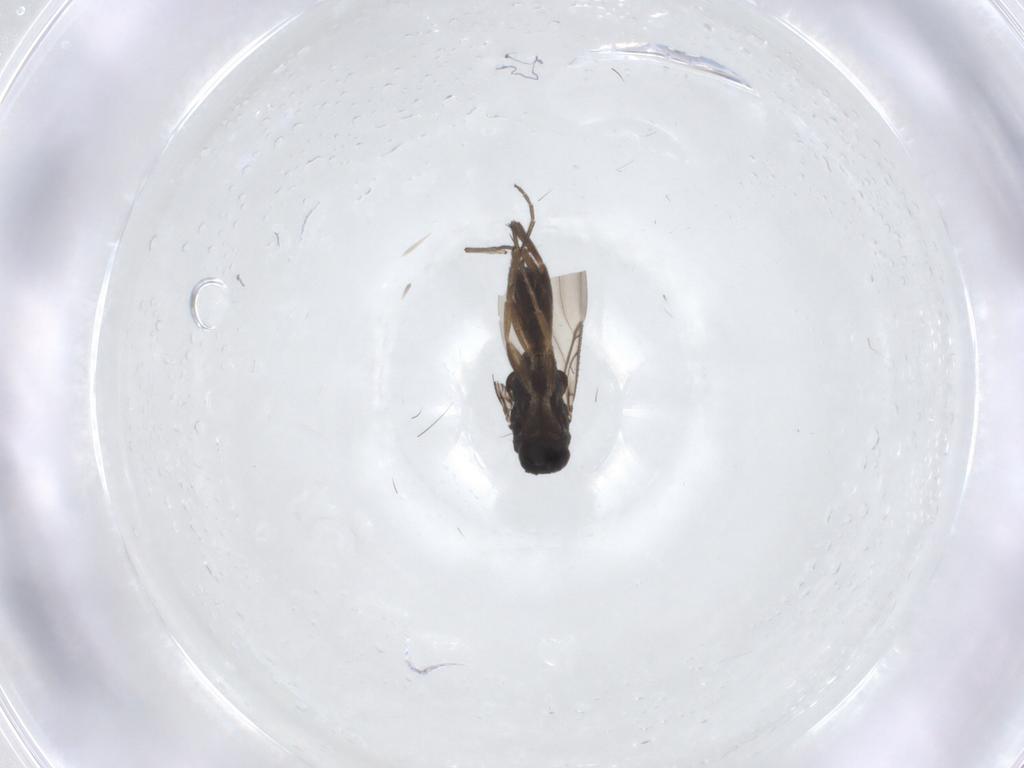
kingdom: Animalia
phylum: Arthropoda
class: Insecta
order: Diptera
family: Phoridae
